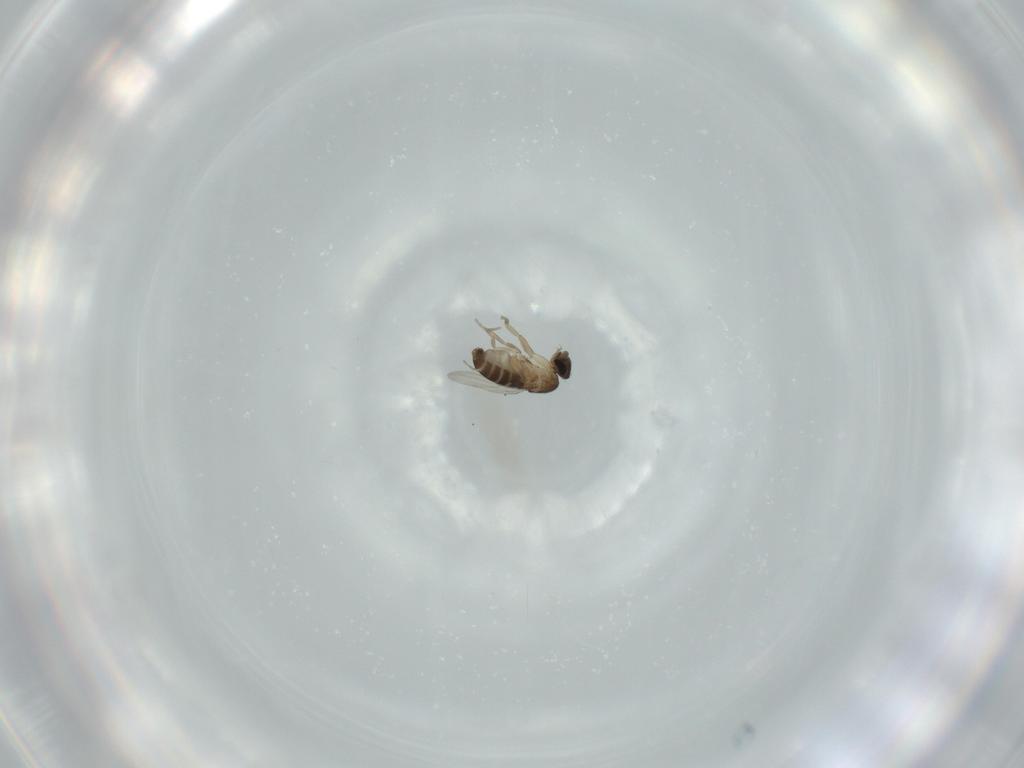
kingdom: Animalia
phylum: Arthropoda
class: Insecta
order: Diptera
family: Phoridae
